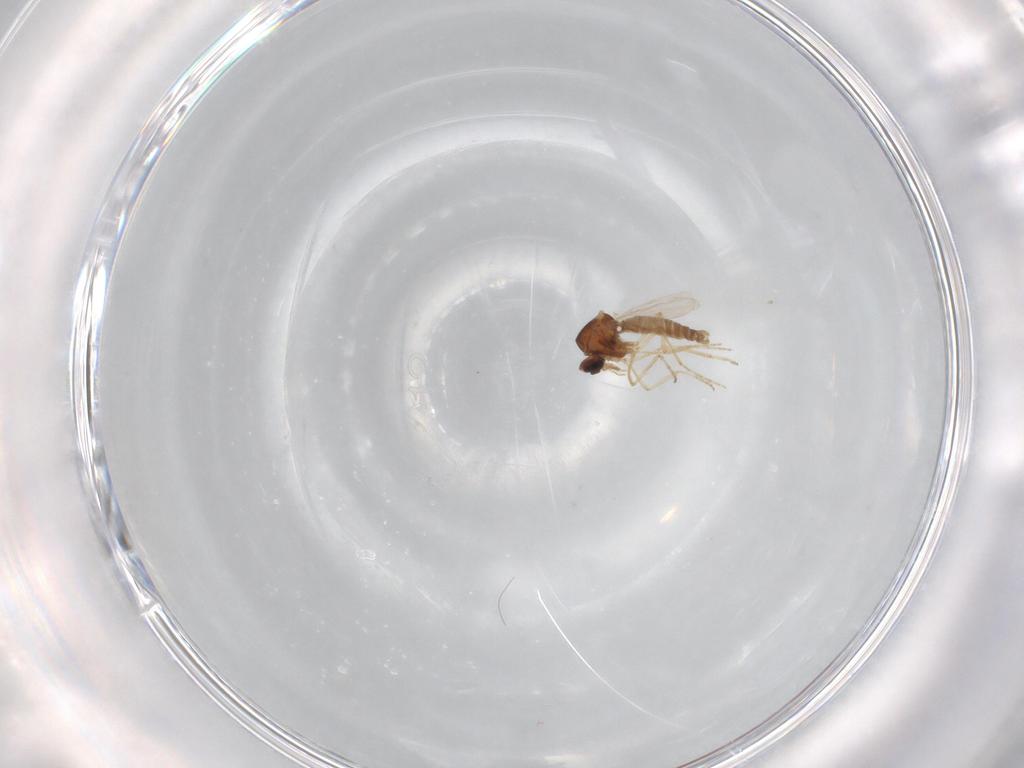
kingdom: Animalia
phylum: Arthropoda
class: Insecta
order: Diptera
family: Ceratopogonidae
